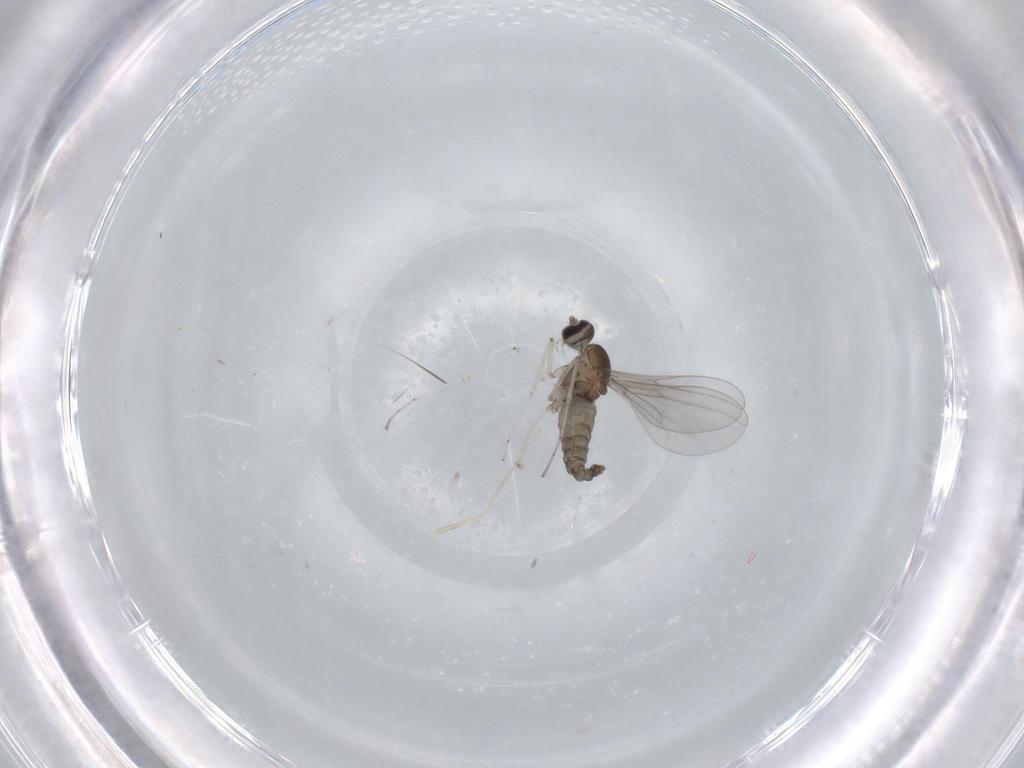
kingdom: Animalia
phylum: Arthropoda
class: Insecta
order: Diptera
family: Cecidomyiidae
